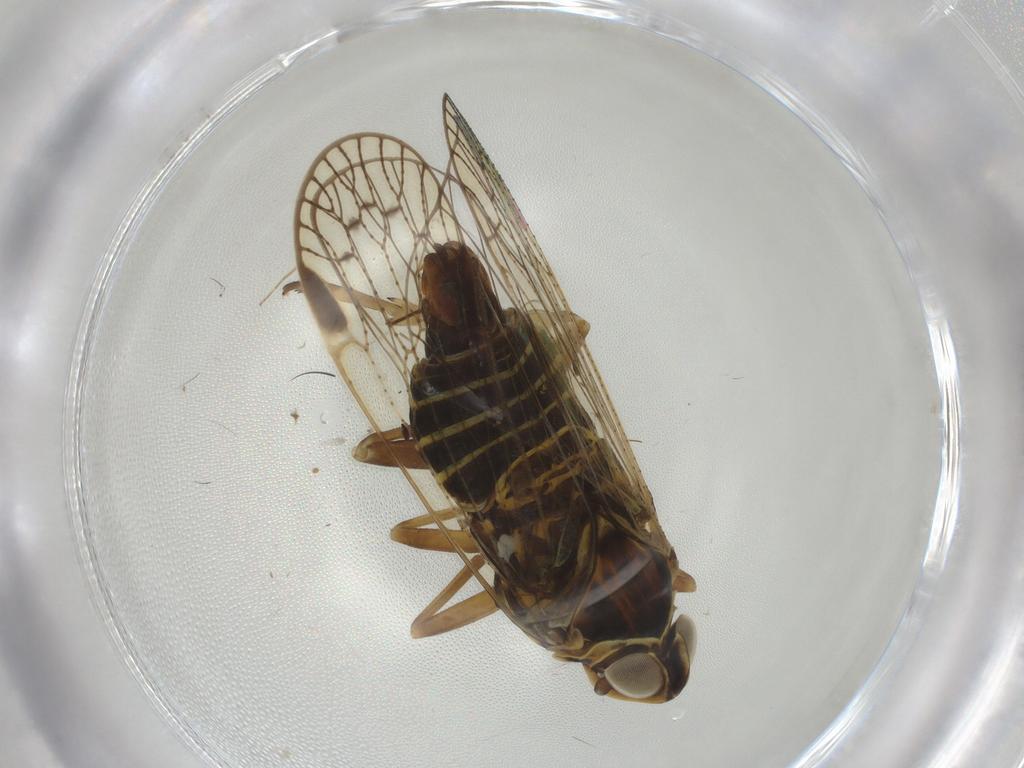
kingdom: Animalia
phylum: Arthropoda
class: Insecta
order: Hemiptera
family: Cixiidae
